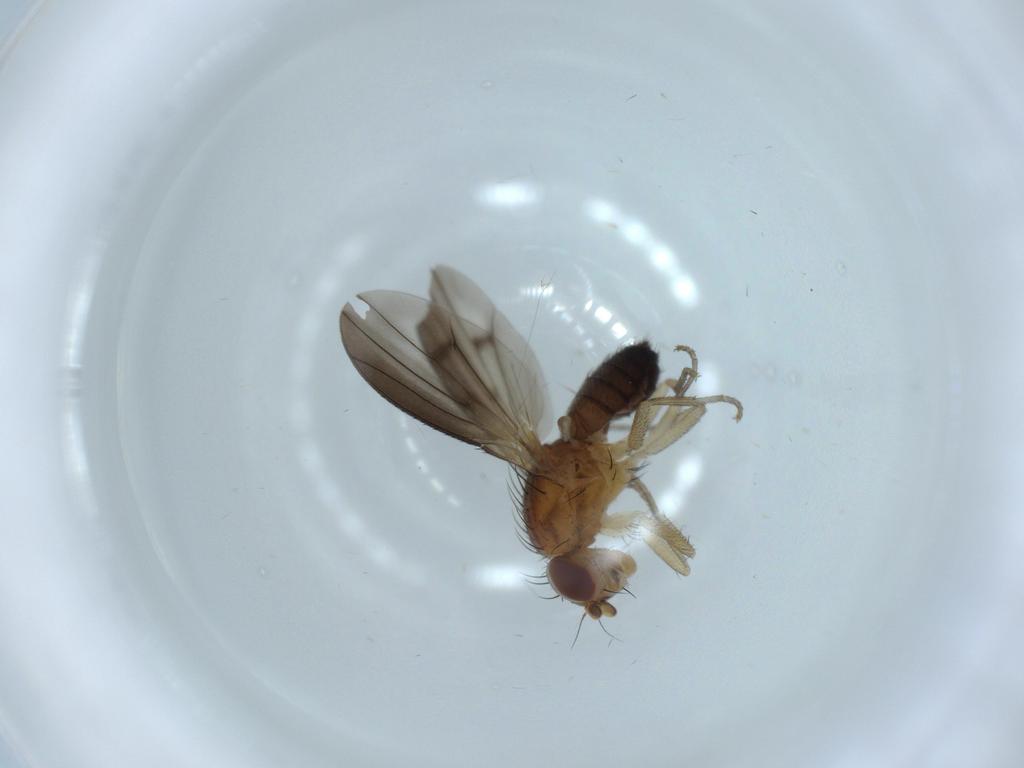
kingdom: Animalia
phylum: Arthropoda
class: Insecta
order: Diptera
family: Heleomyzidae
